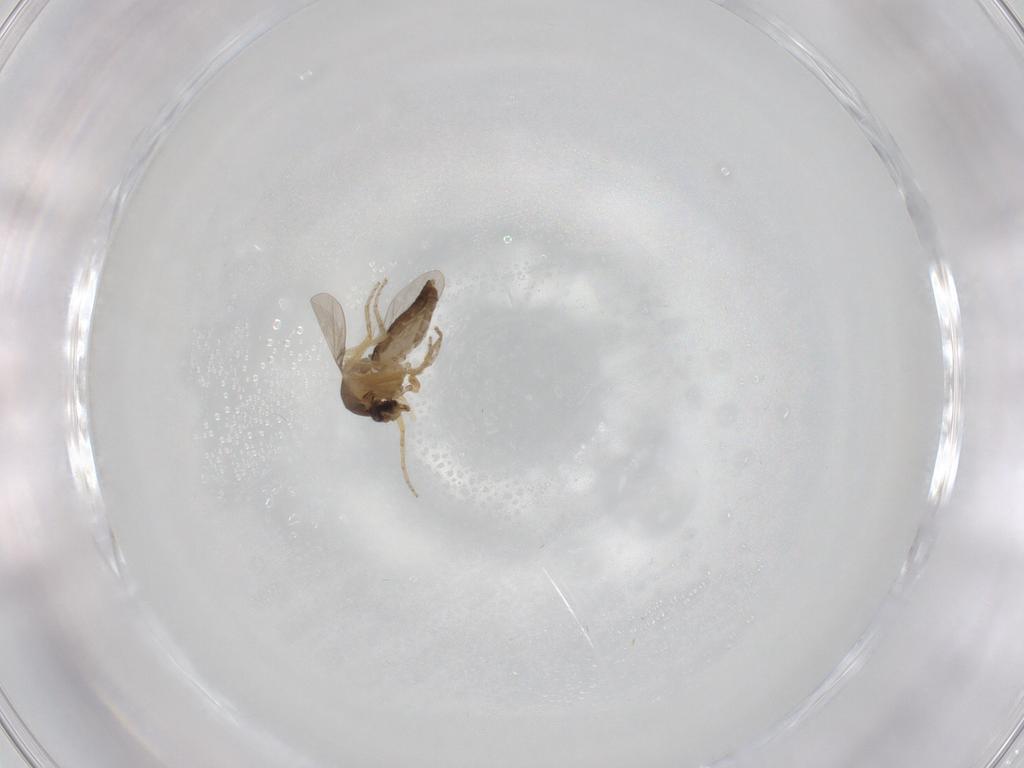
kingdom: Animalia
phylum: Arthropoda
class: Insecta
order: Diptera
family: Ceratopogonidae
